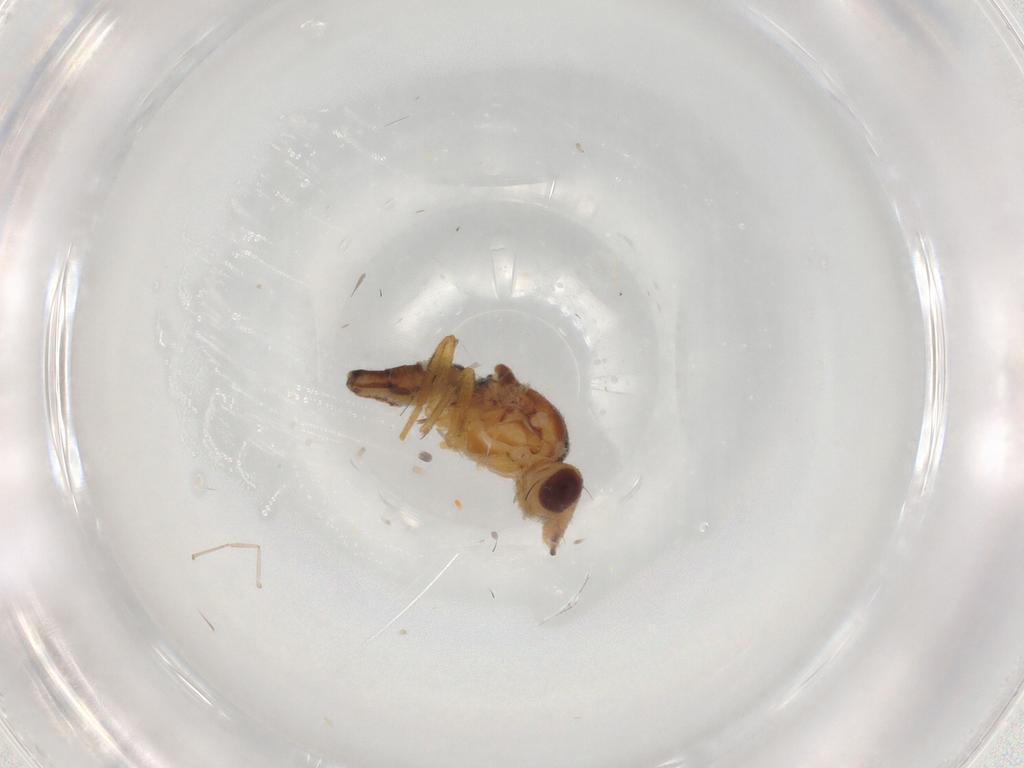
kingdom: Animalia
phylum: Arthropoda
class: Insecta
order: Diptera
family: Chloropidae
